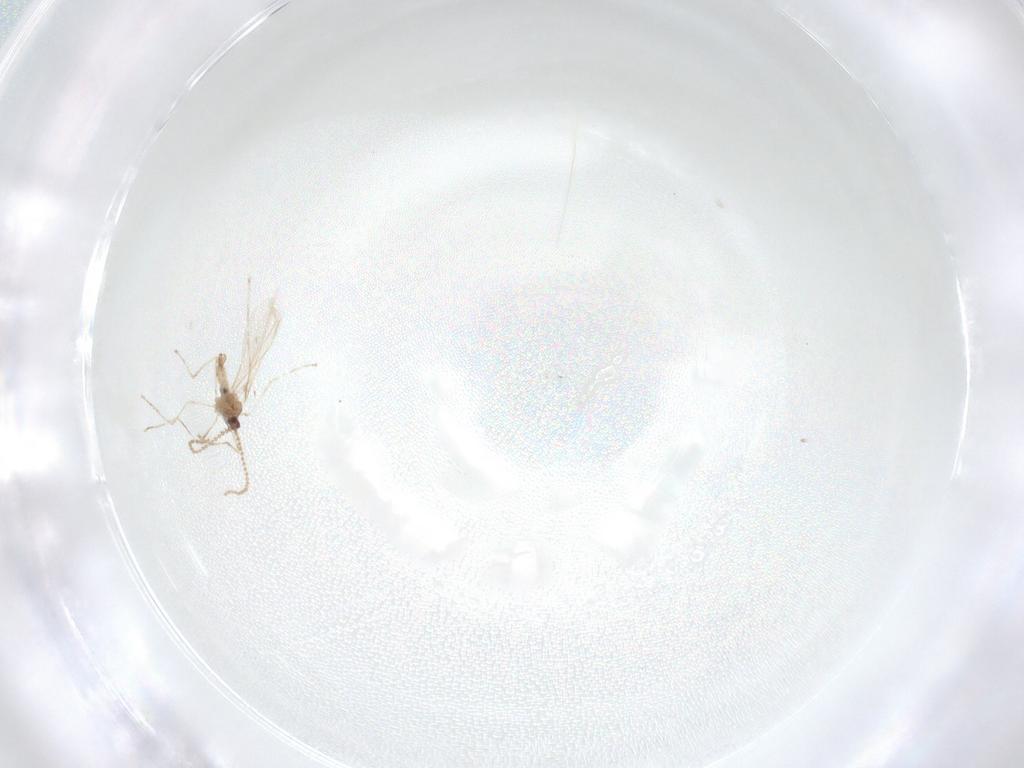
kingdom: Animalia
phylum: Arthropoda
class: Insecta
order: Diptera
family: Cecidomyiidae
